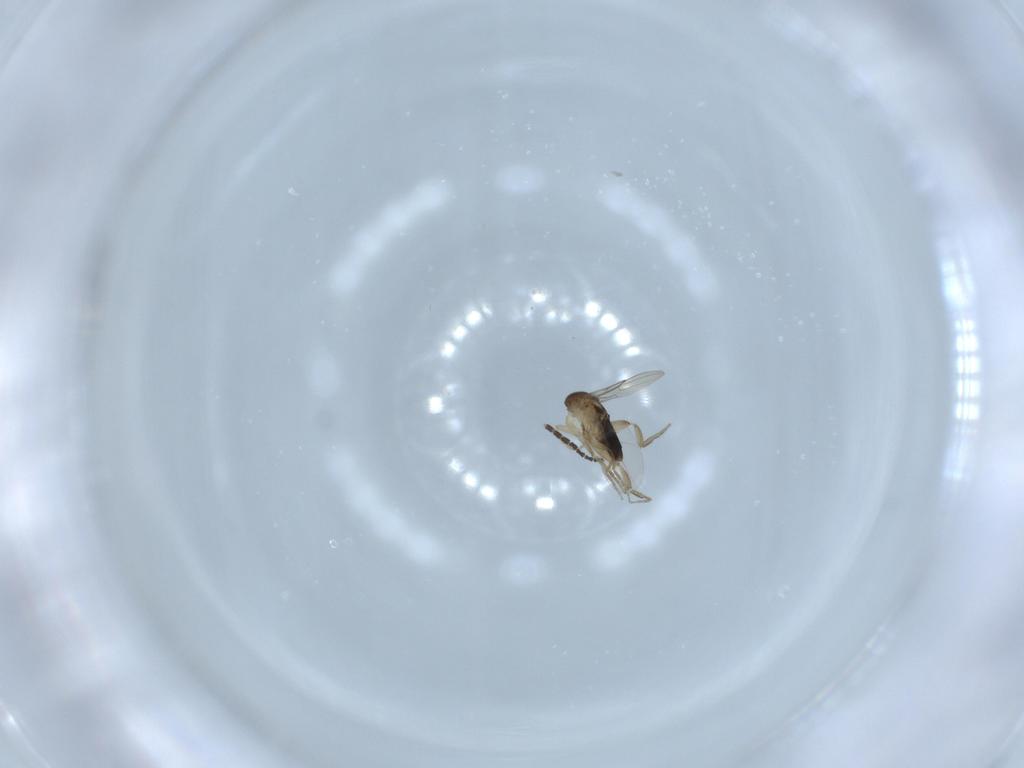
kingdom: Animalia
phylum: Arthropoda
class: Insecta
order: Diptera
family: Phoridae
